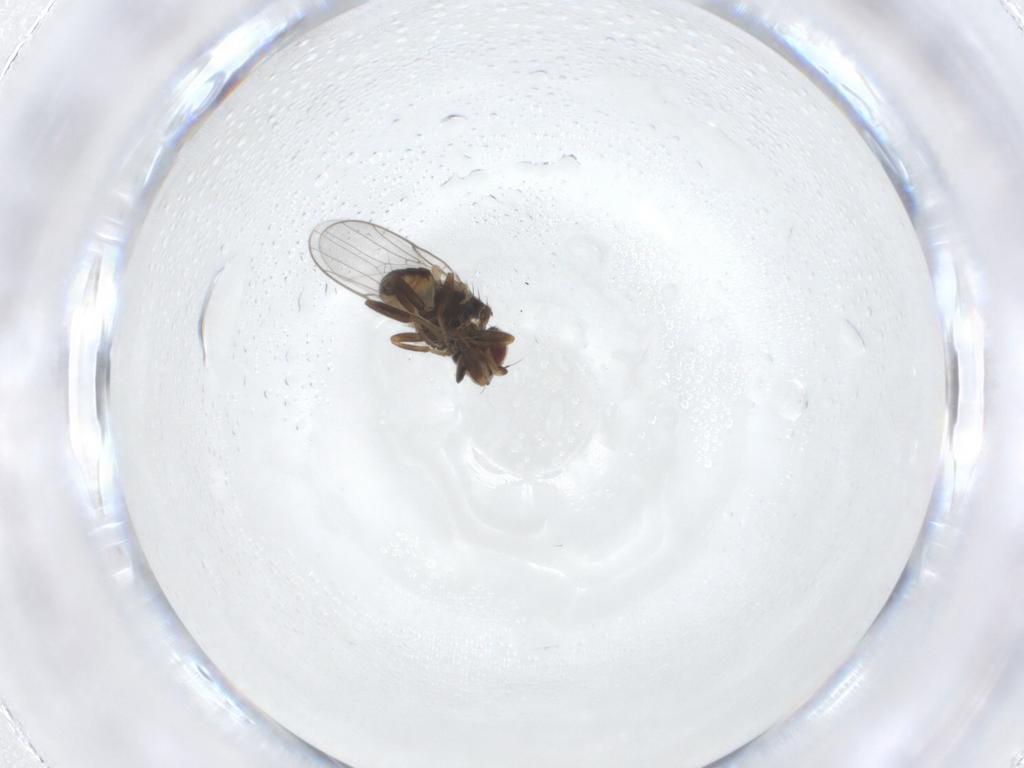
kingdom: Animalia
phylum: Arthropoda
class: Insecta
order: Diptera
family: Chloropidae
